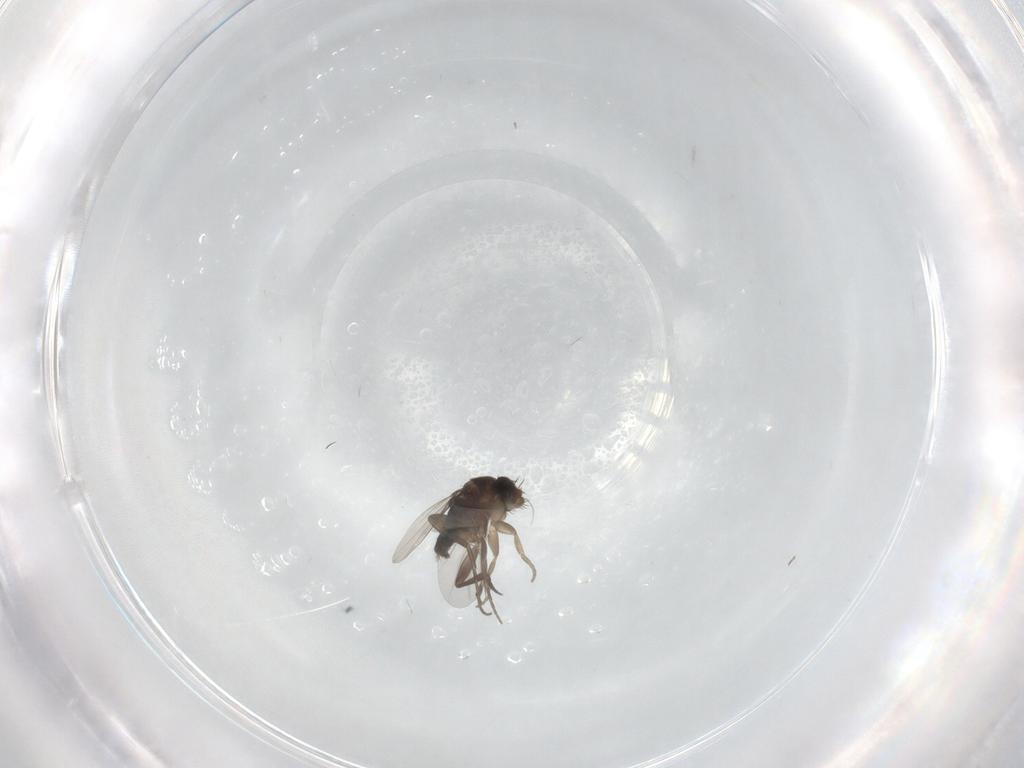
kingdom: Animalia
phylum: Arthropoda
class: Insecta
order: Diptera
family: Phoridae
